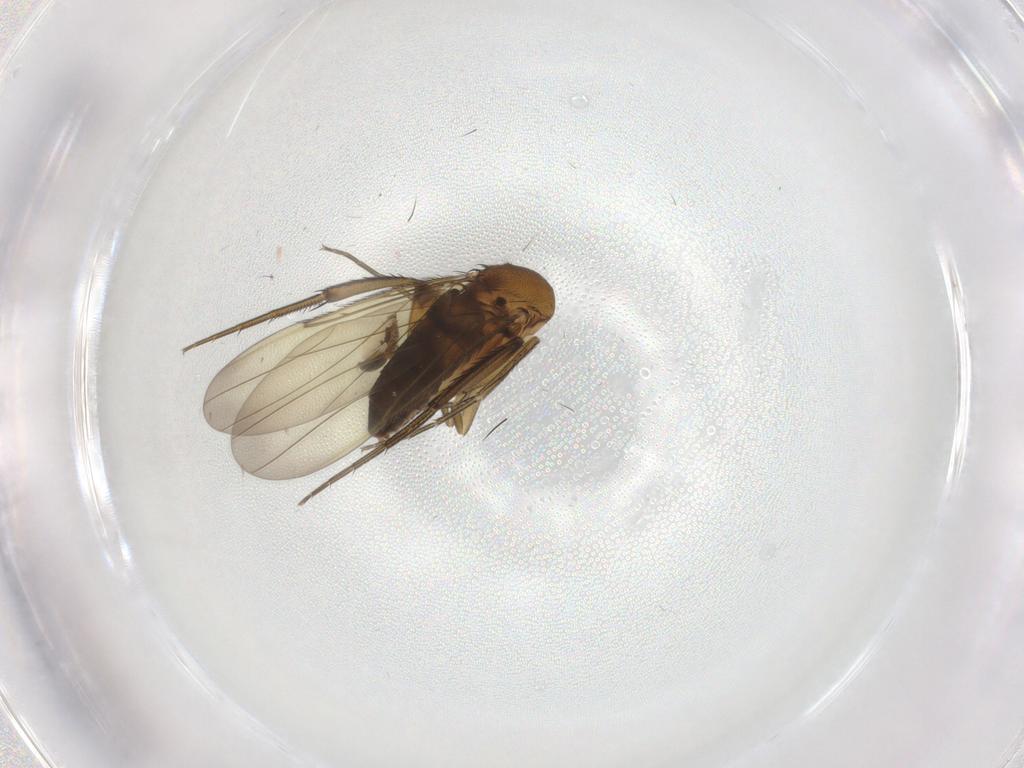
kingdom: Animalia
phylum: Arthropoda
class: Insecta
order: Diptera
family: Phoridae
